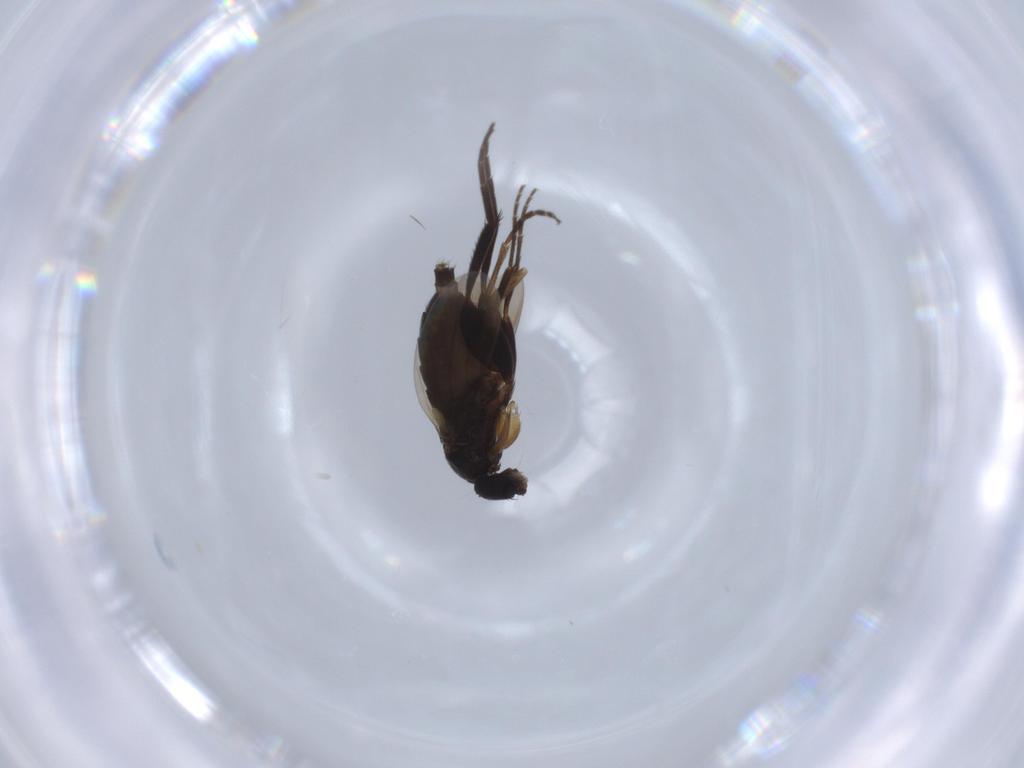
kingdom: Animalia
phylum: Arthropoda
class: Insecta
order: Diptera
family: Phoridae
